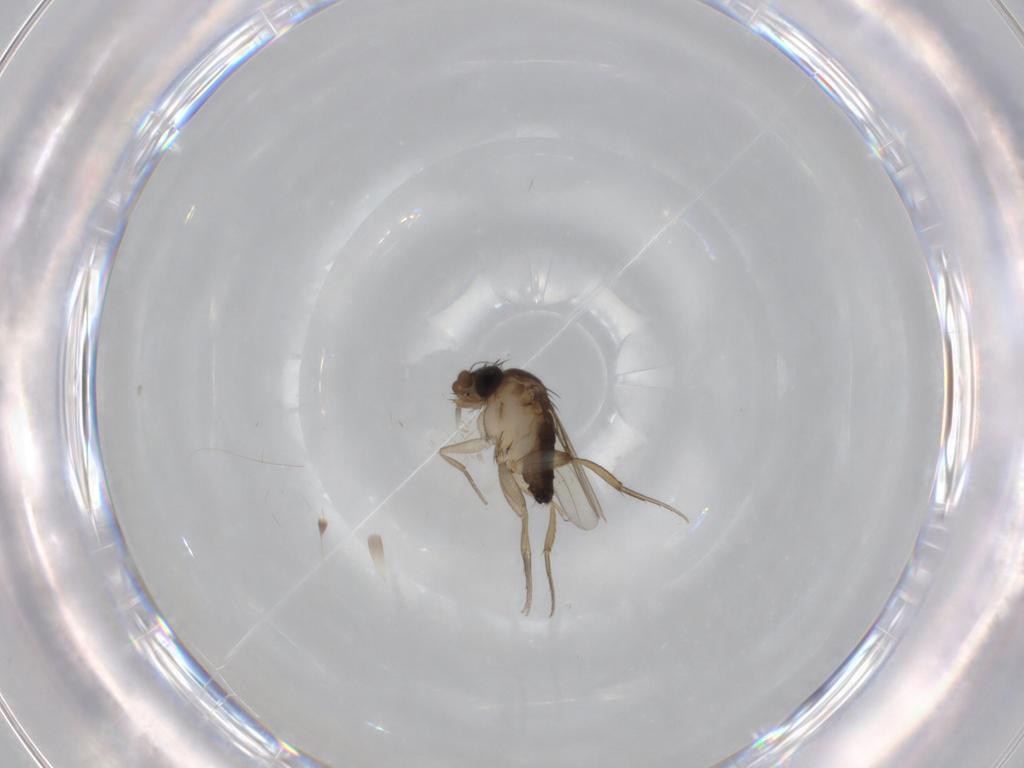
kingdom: Animalia
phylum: Arthropoda
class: Insecta
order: Diptera
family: Phoridae
